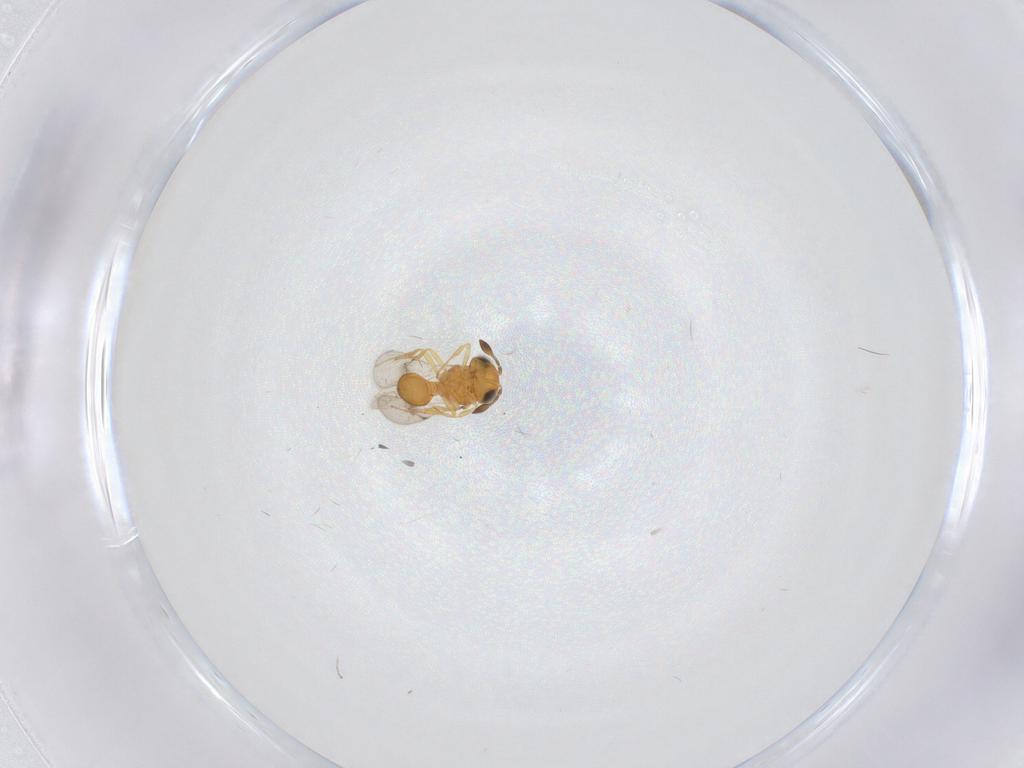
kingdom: Animalia
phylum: Arthropoda
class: Insecta
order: Hymenoptera
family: Scelionidae
